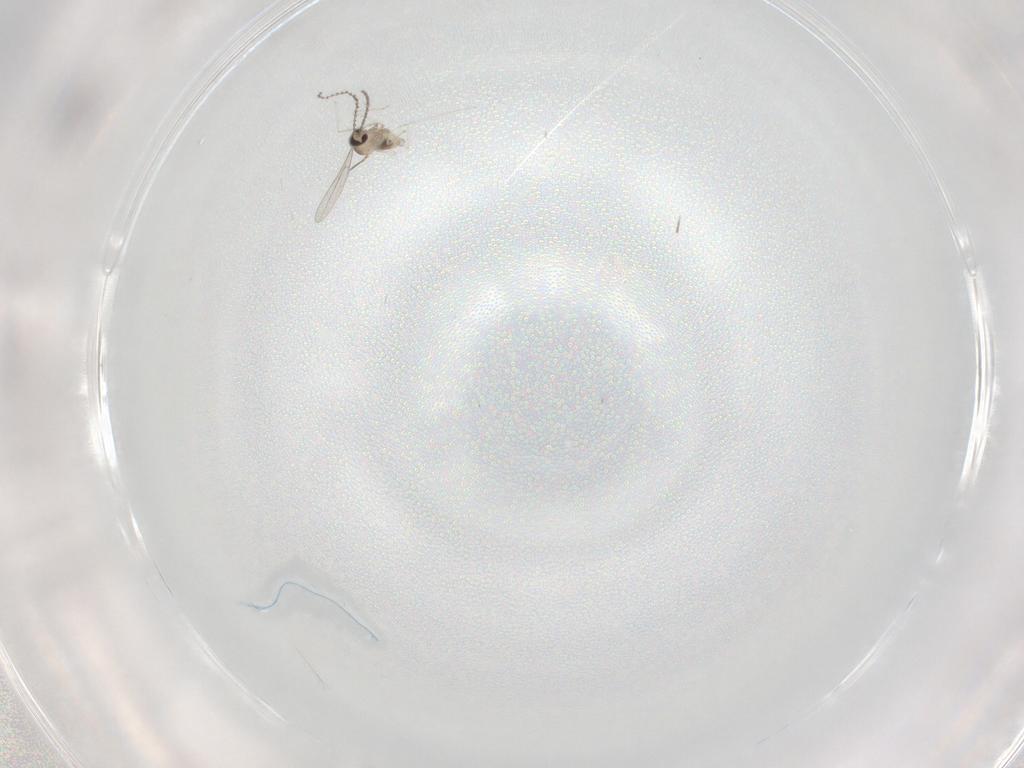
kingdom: Animalia
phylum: Arthropoda
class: Insecta
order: Diptera
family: Cecidomyiidae
